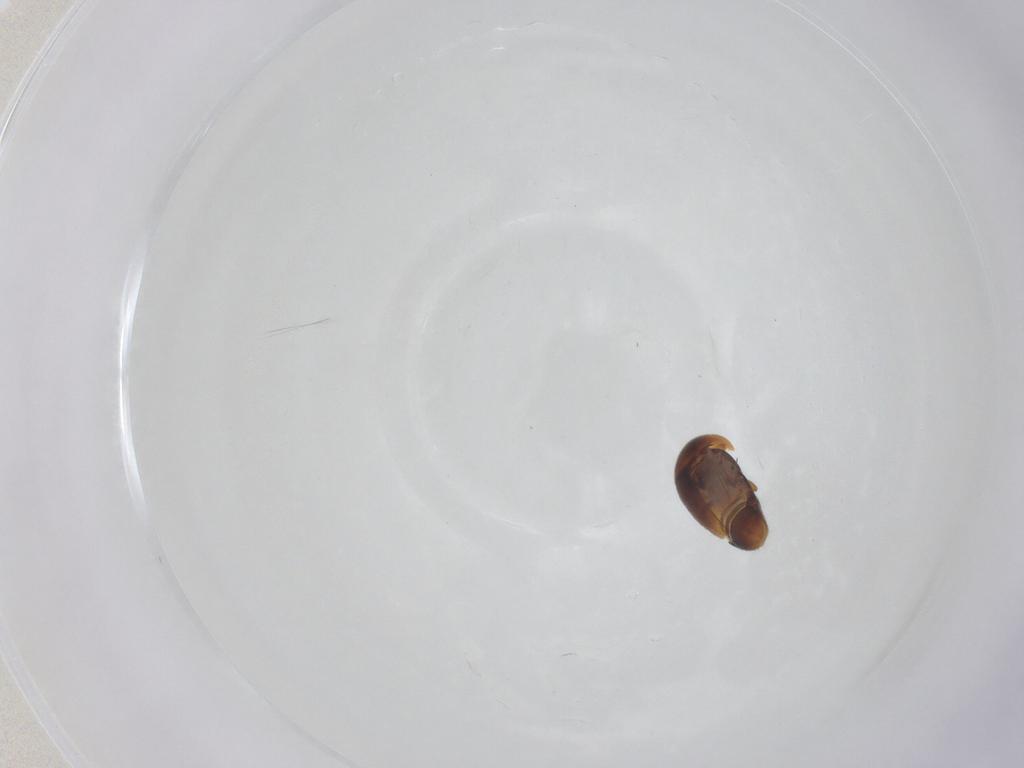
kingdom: Animalia
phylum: Arthropoda
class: Insecta
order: Coleoptera
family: Corylophidae
